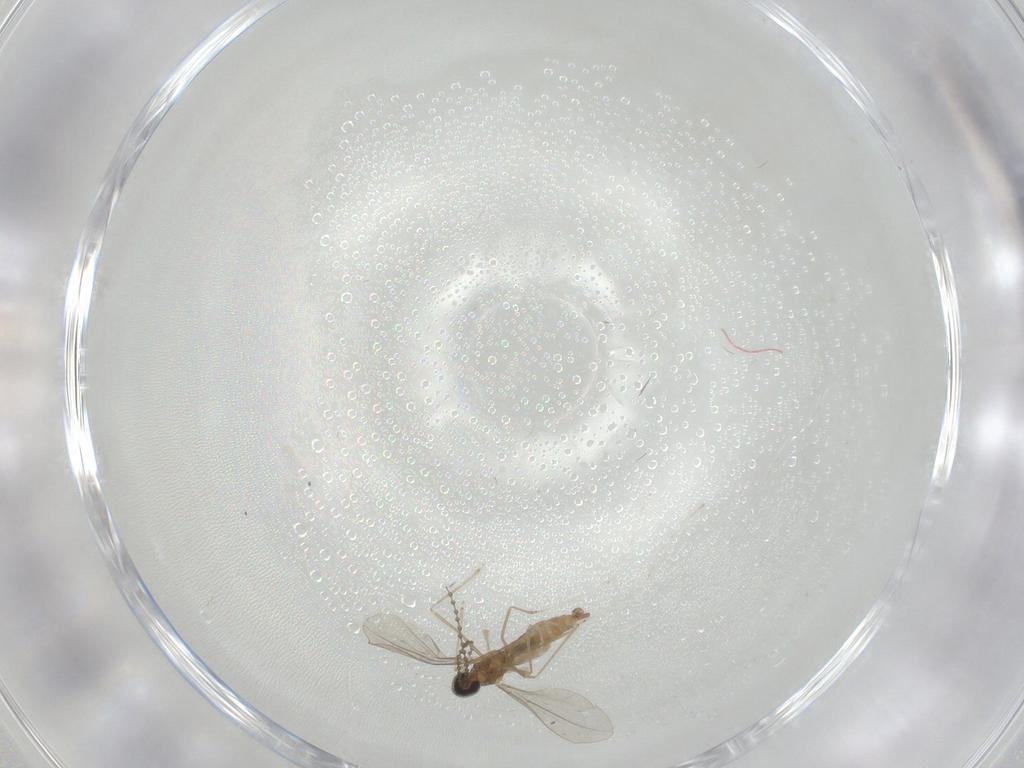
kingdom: Animalia
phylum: Arthropoda
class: Insecta
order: Diptera
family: Cecidomyiidae
